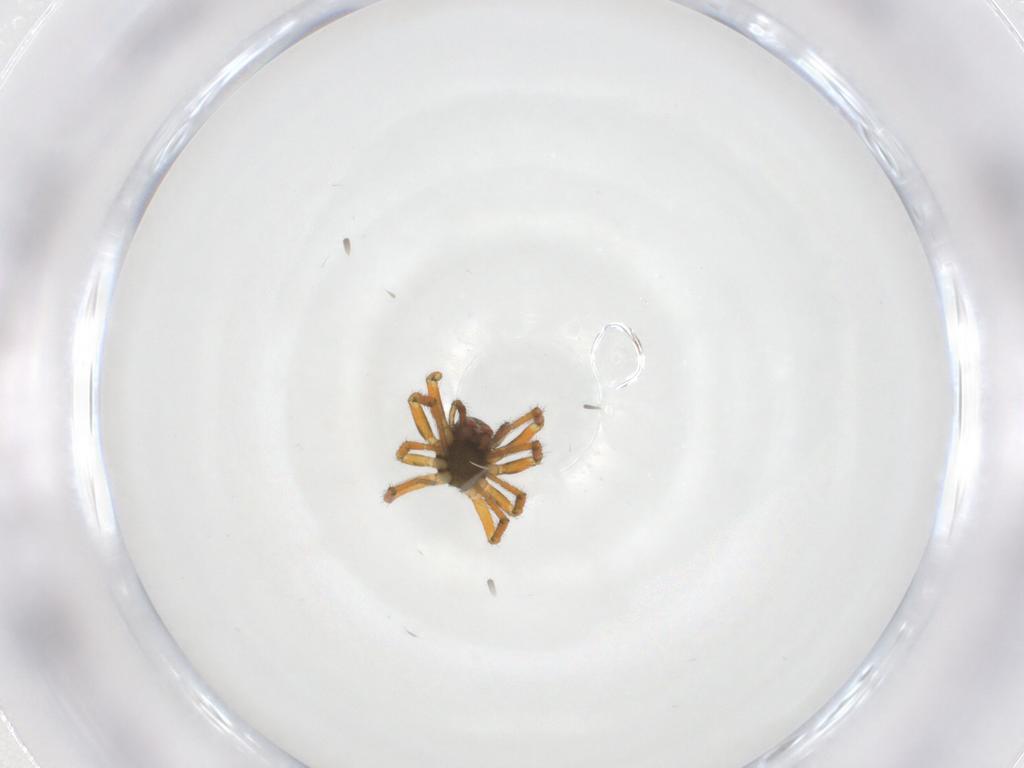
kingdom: Animalia
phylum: Arthropoda
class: Arachnida
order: Araneae
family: Linyphiidae
